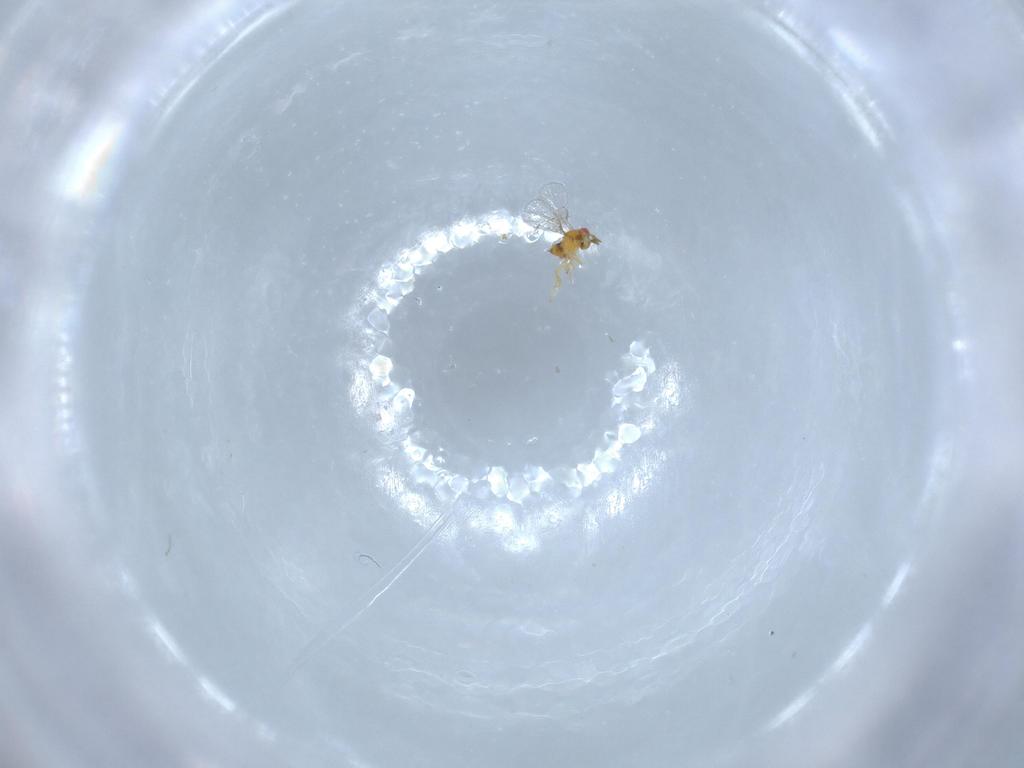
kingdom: Animalia
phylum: Arthropoda
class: Insecta
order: Hymenoptera
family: Trichogrammatidae
